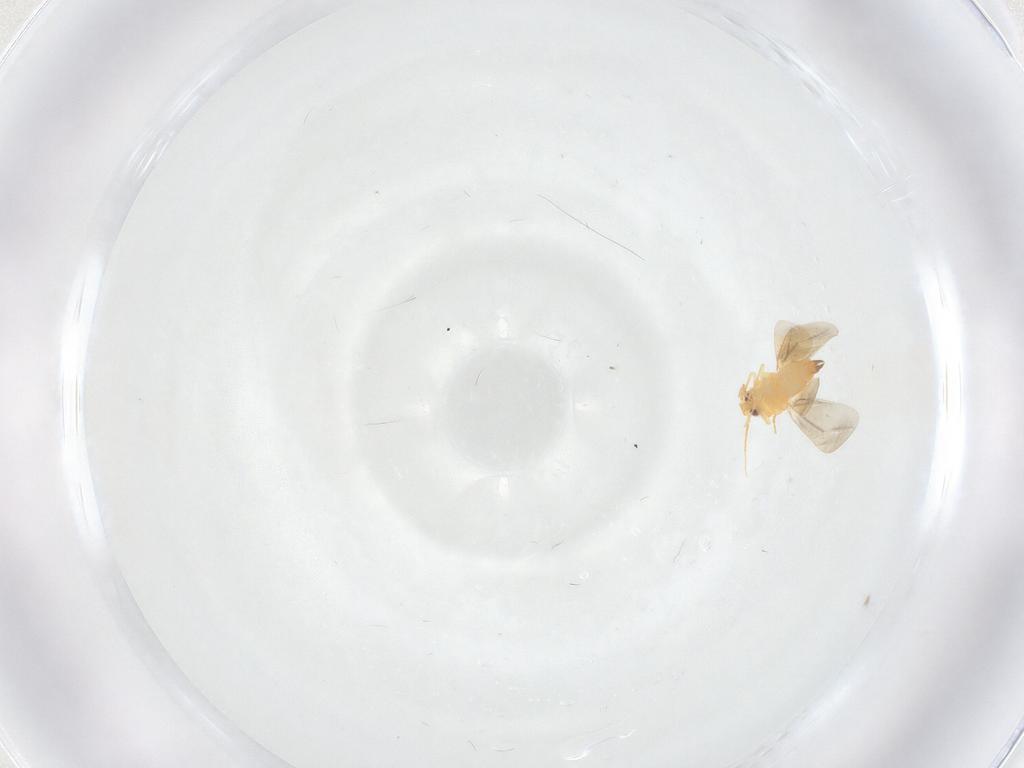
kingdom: Animalia
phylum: Arthropoda
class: Insecta
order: Hemiptera
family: Aleyrodidae
